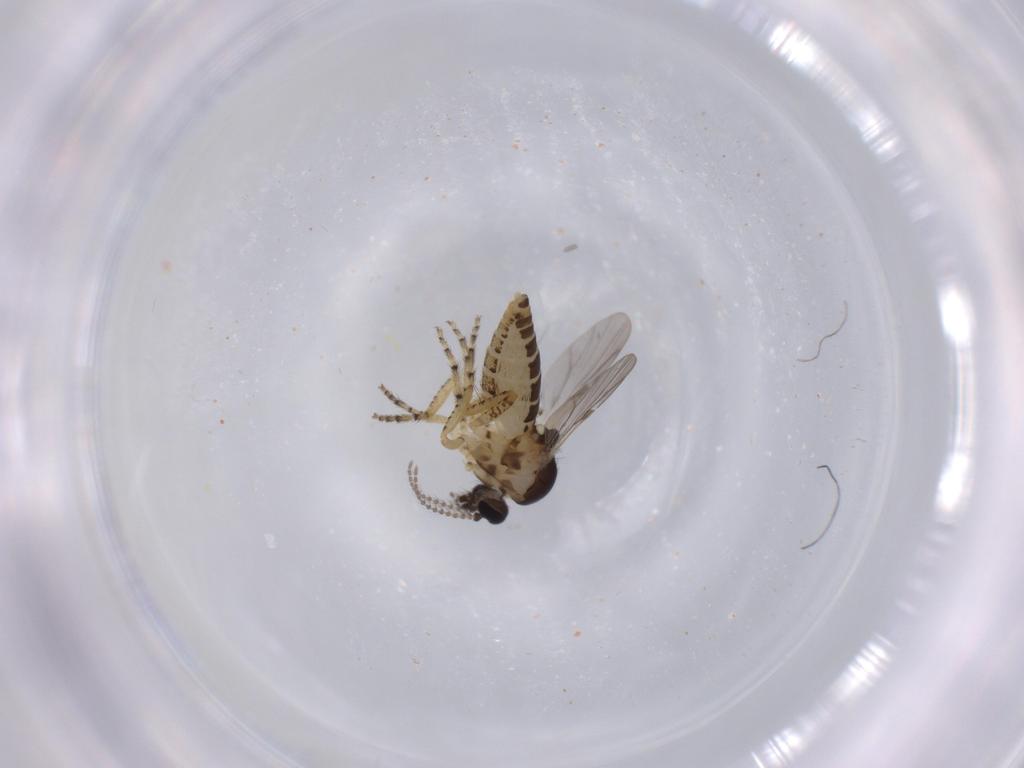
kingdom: Animalia
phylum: Arthropoda
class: Insecta
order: Diptera
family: Ceratopogonidae
